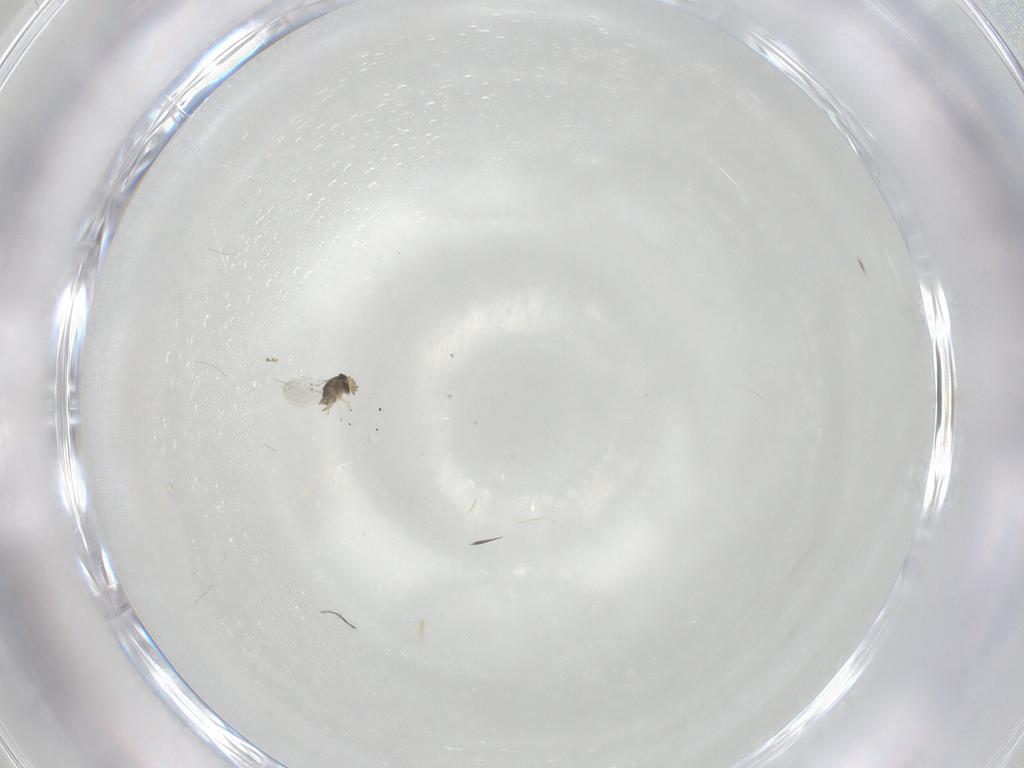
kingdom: Animalia
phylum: Arthropoda
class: Insecta
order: Hymenoptera
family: Encyrtidae
